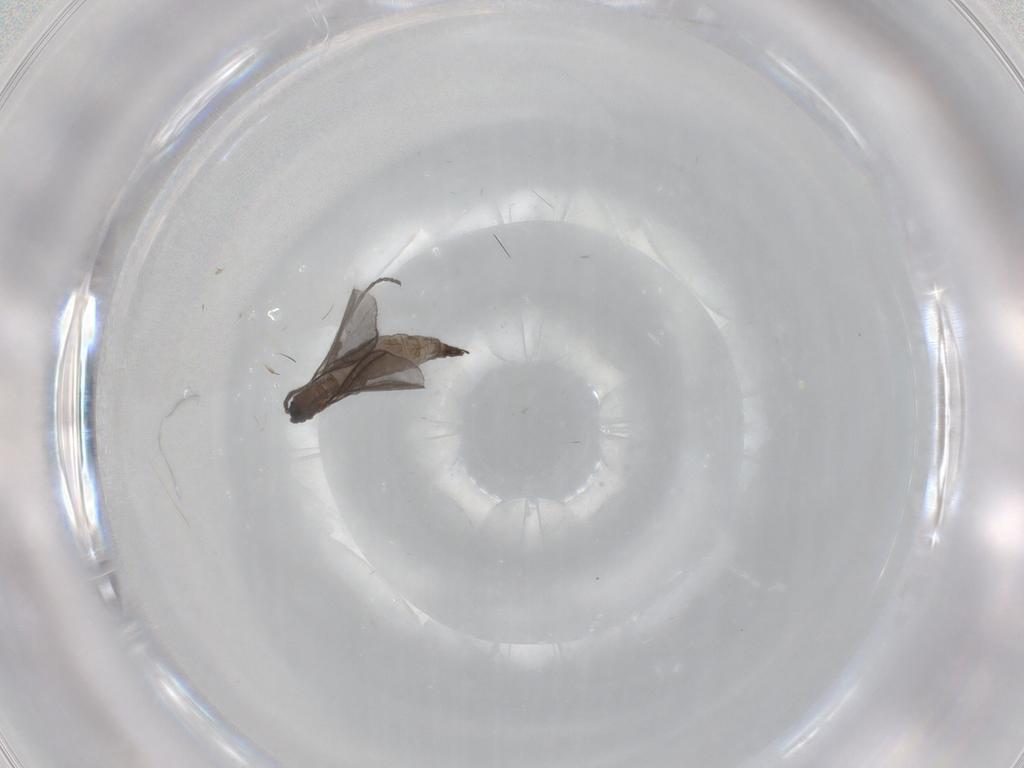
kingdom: Animalia
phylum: Arthropoda
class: Insecta
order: Diptera
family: Sciaridae
